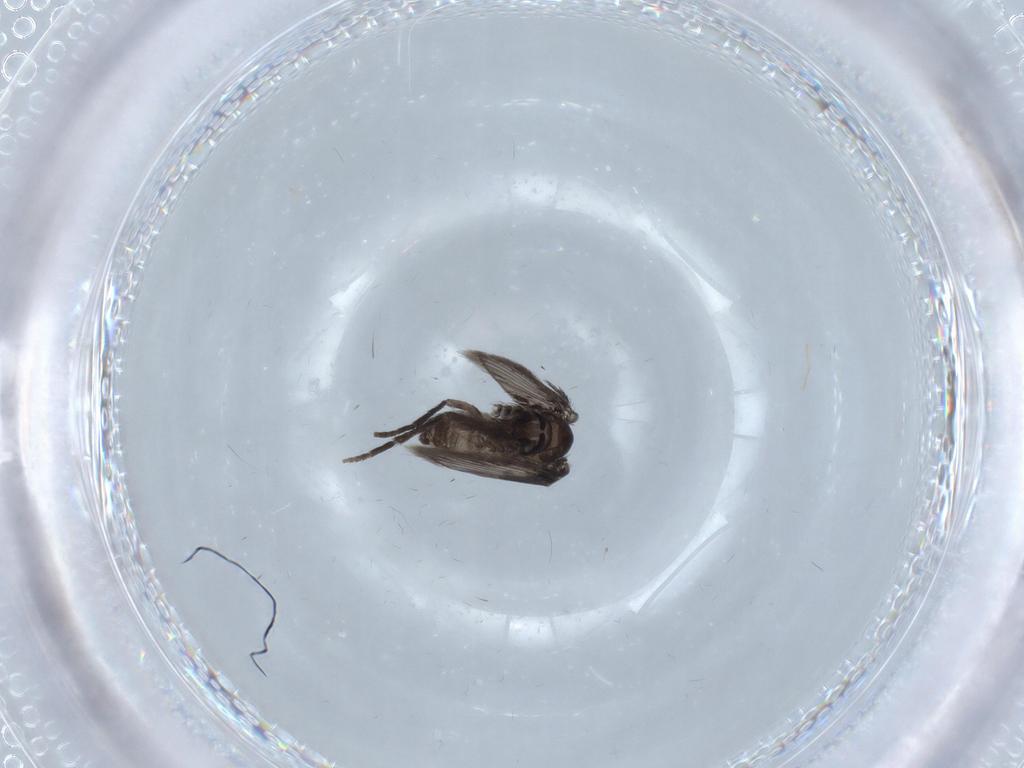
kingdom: Animalia
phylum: Arthropoda
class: Insecta
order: Diptera
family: Psychodidae
